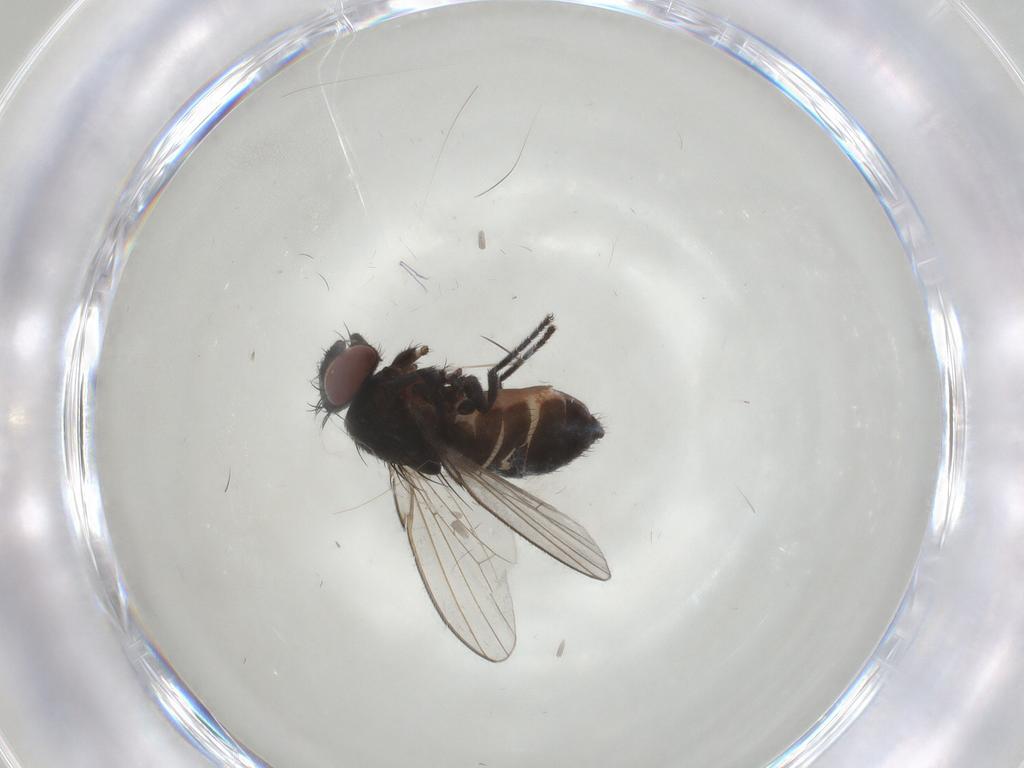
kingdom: Animalia
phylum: Arthropoda
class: Insecta
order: Diptera
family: Milichiidae
